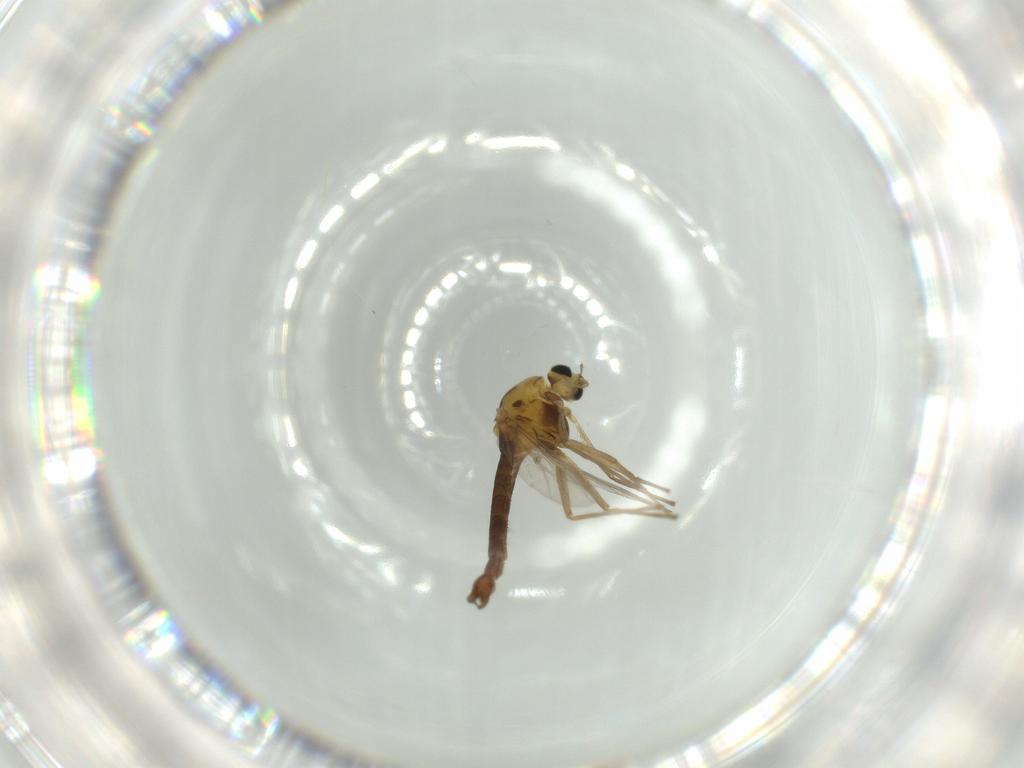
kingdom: Animalia
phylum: Arthropoda
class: Insecta
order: Diptera
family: Chironomidae
